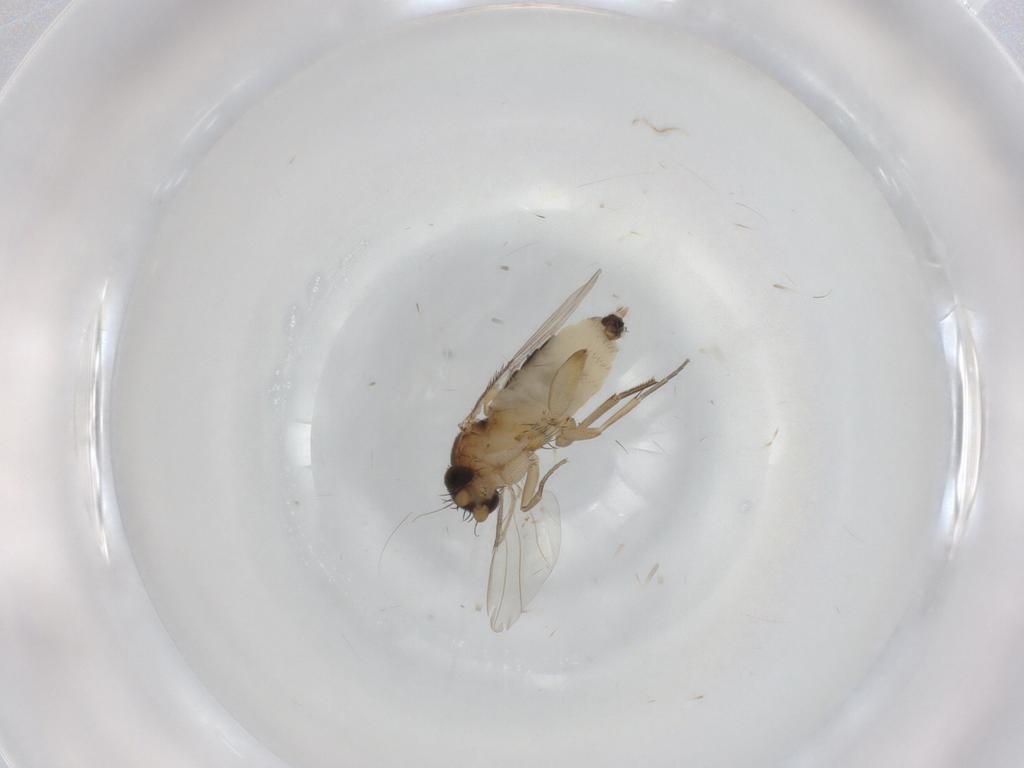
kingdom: Animalia
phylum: Arthropoda
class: Insecta
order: Diptera
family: Phoridae
